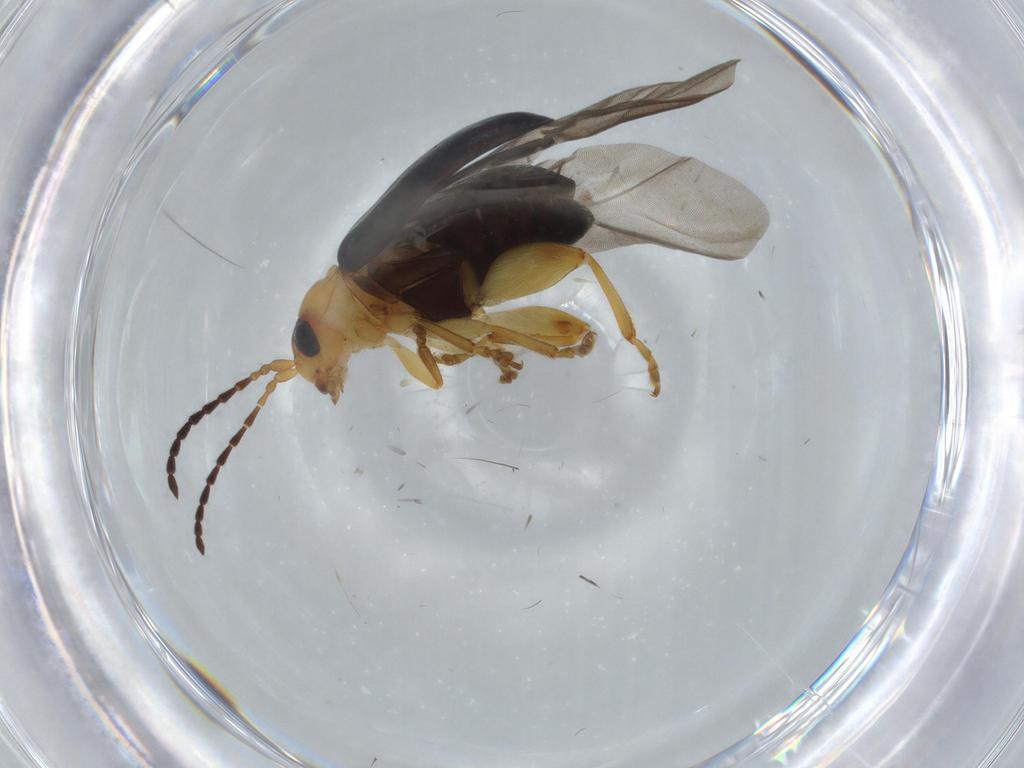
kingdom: Animalia
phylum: Arthropoda
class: Insecta
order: Coleoptera
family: Chrysomelidae
